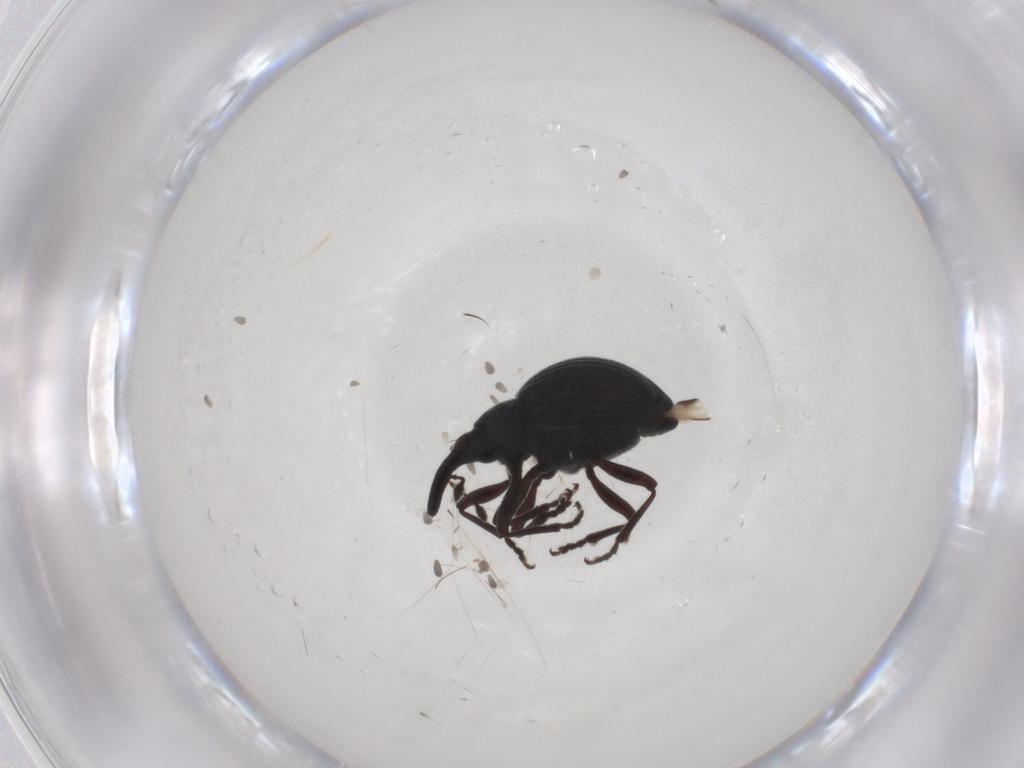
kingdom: Animalia
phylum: Arthropoda
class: Insecta
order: Coleoptera
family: Brentidae
